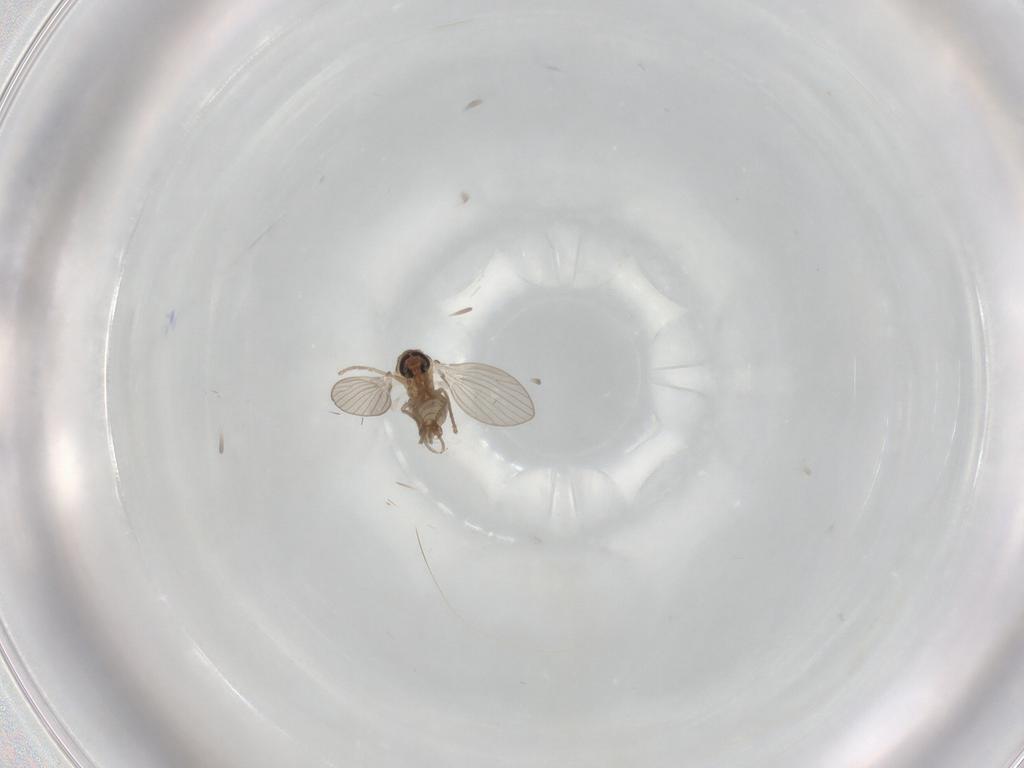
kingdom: Animalia
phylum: Arthropoda
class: Insecta
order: Diptera
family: Psychodidae
